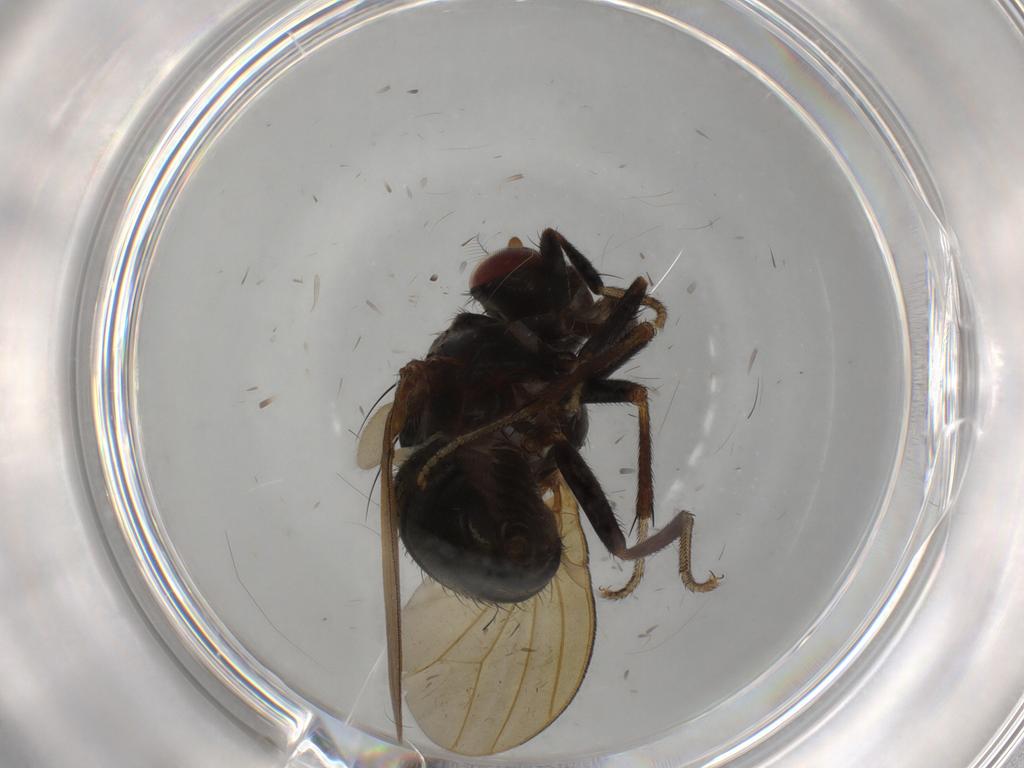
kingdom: Animalia
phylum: Arthropoda
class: Insecta
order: Diptera
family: Lauxaniidae
